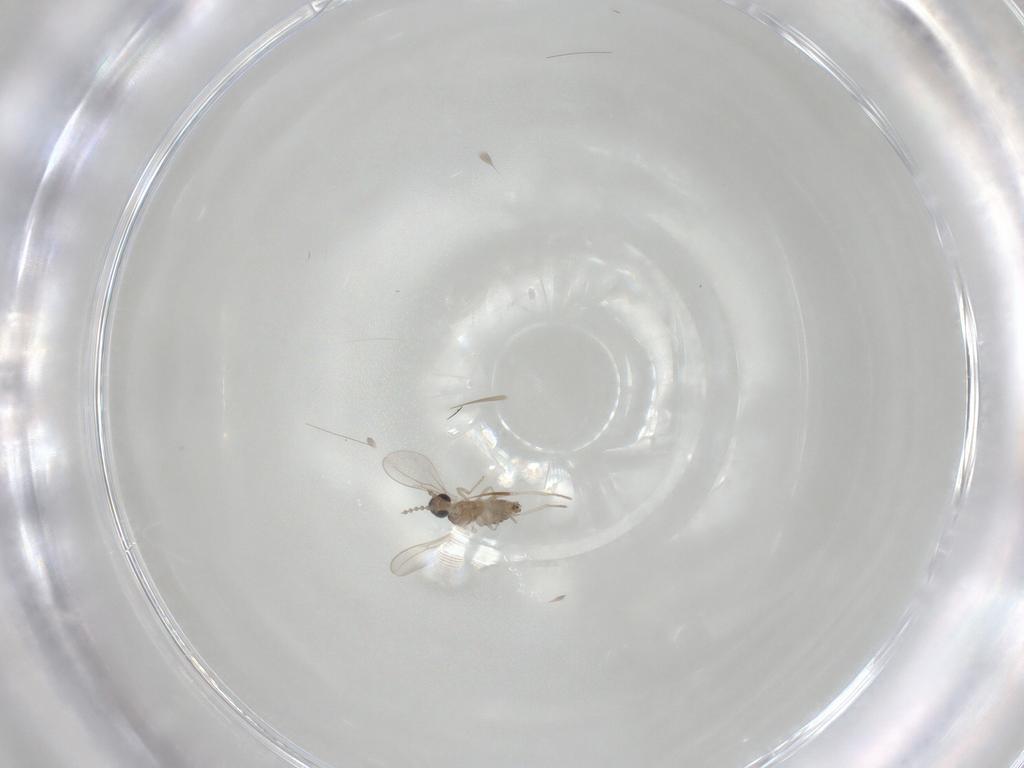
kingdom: Animalia
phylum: Arthropoda
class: Insecta
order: Diptera
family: Cecidomyiidae
